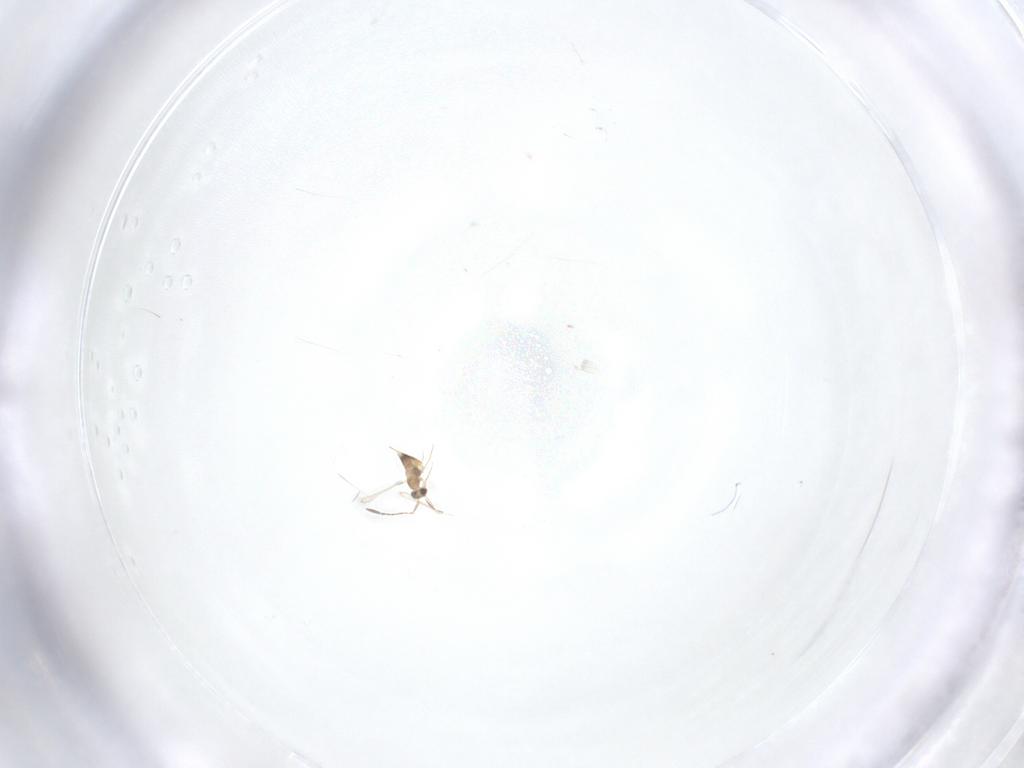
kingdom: Animalia
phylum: Arthropoda
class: Insecta
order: Hymenoptera
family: Mymaridae
